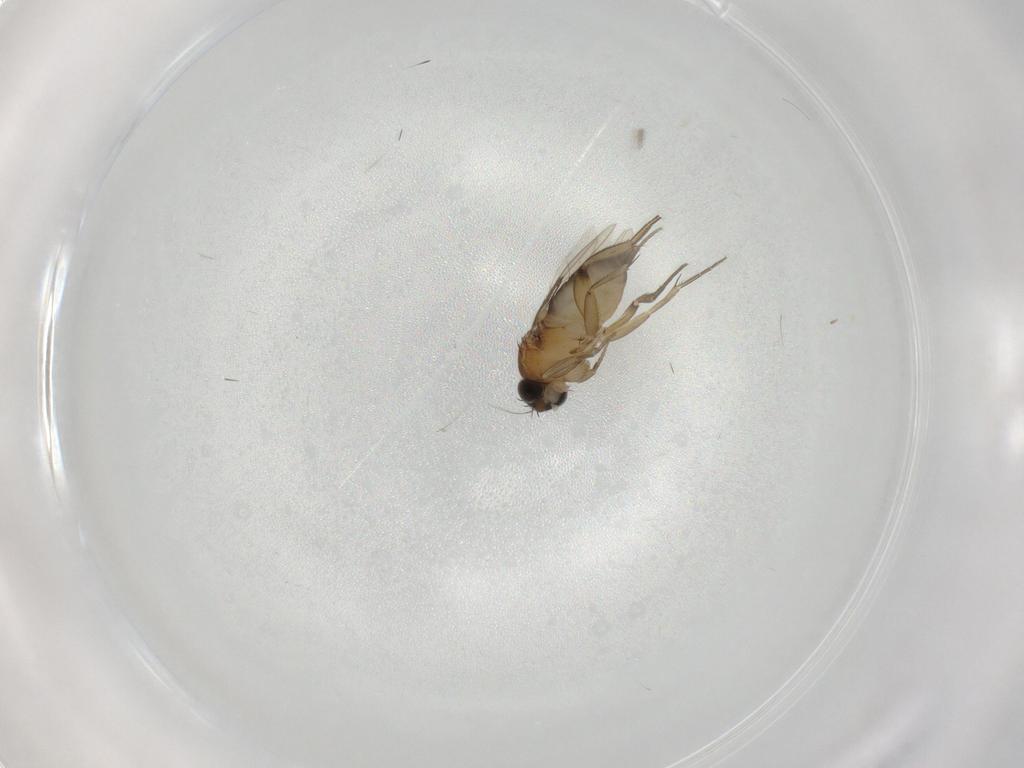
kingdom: Animalia
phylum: Arthropoda
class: Insecta
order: Diptera
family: Phoridae
